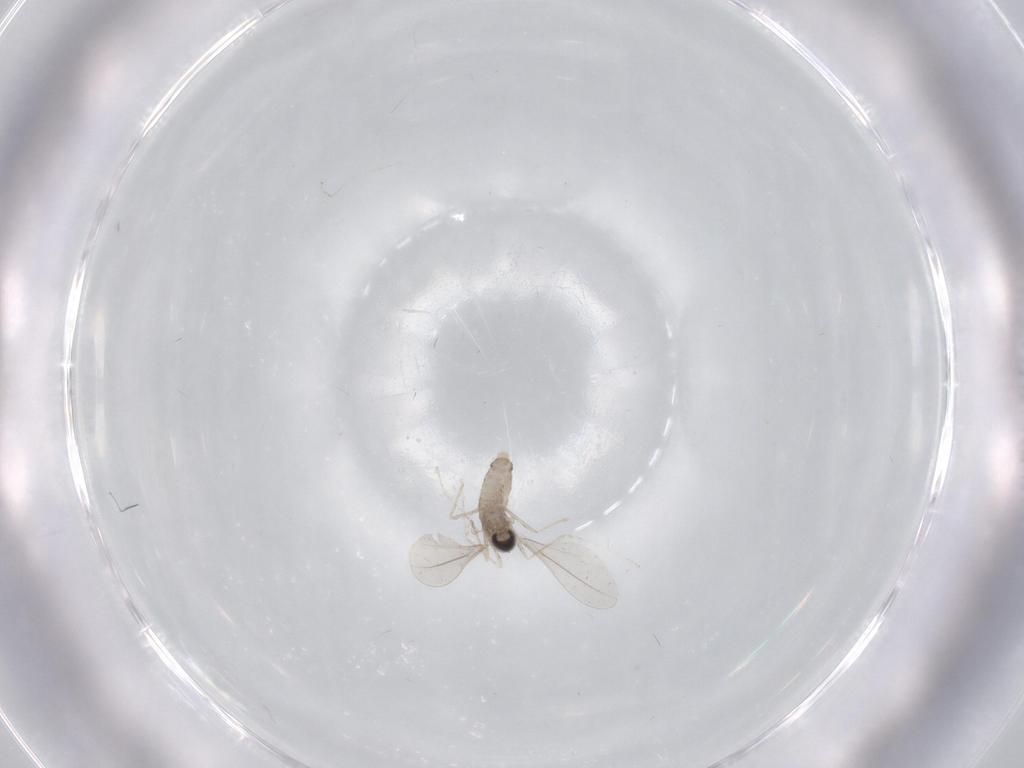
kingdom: Animalia
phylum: Arthropoda
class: Insecta
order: Diptera
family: Cecidomyiidae
